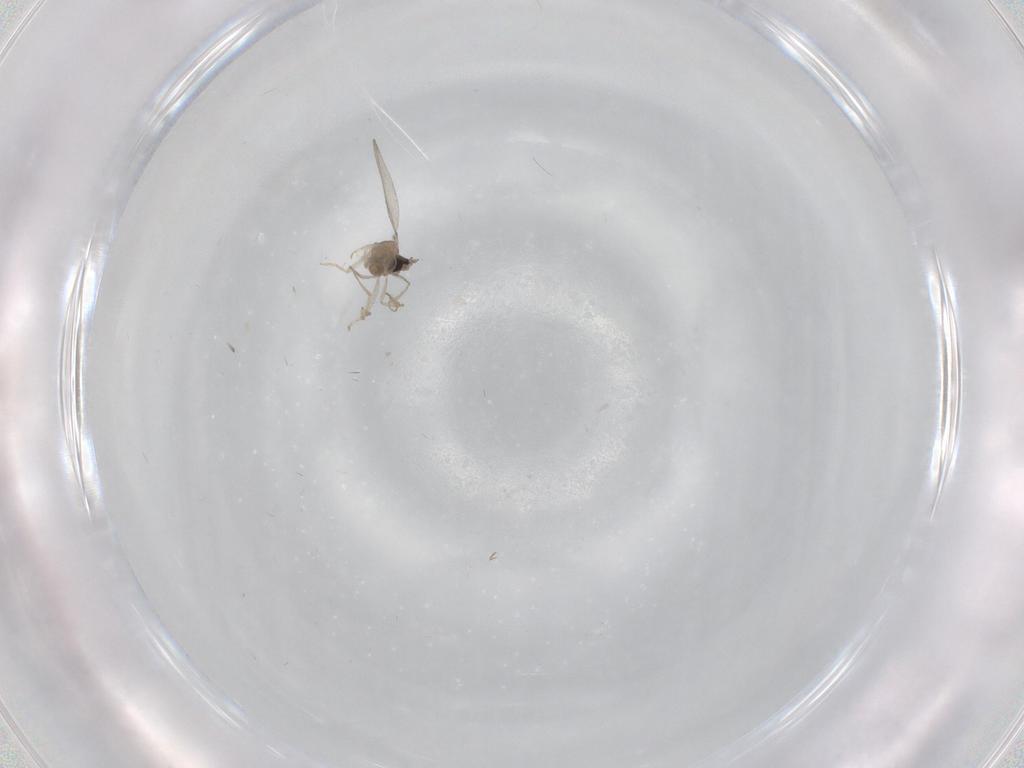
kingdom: Animalia
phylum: Arthropoda
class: Insecta
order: Diptera
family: Cecidomyiidae
